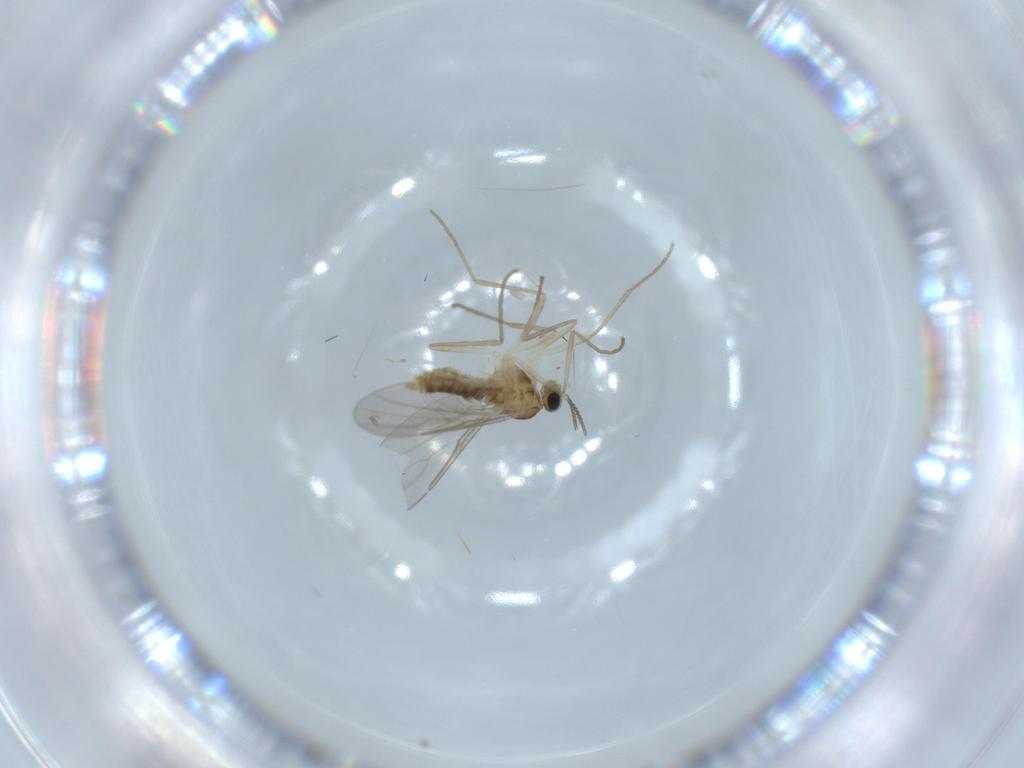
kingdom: Animalia
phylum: Arthropoda
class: Insecta
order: Diptera
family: Cecidomyiidae
